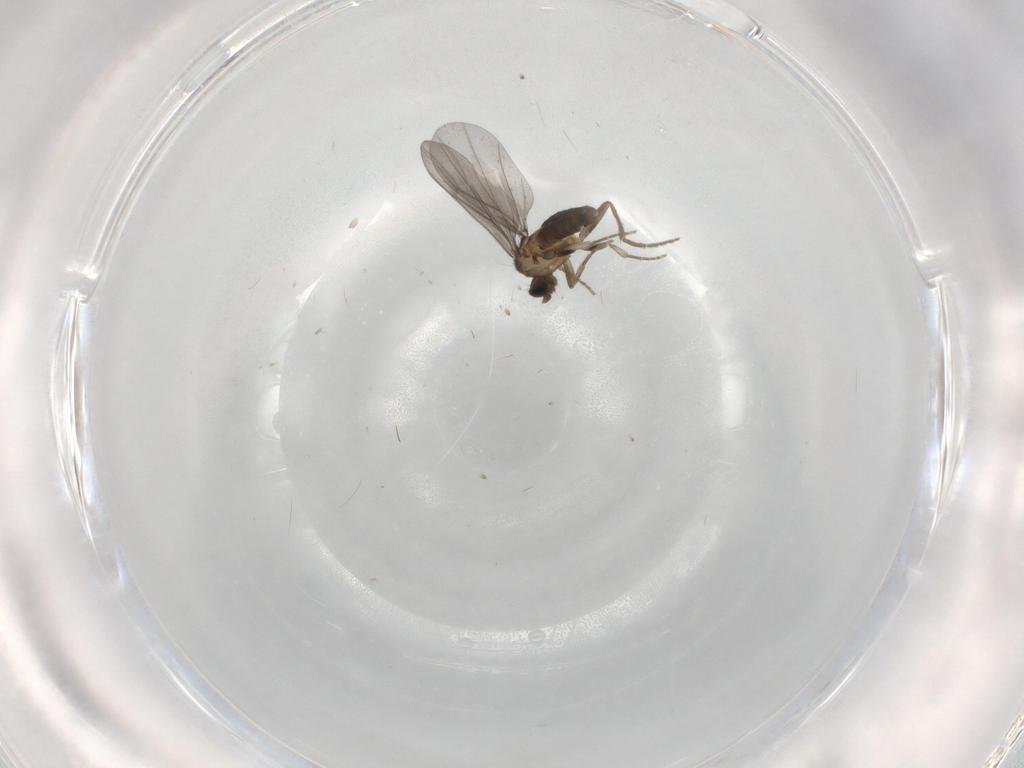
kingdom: Animalia
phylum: Arthropoda
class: Insecta
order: Diptera
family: Phoridae
